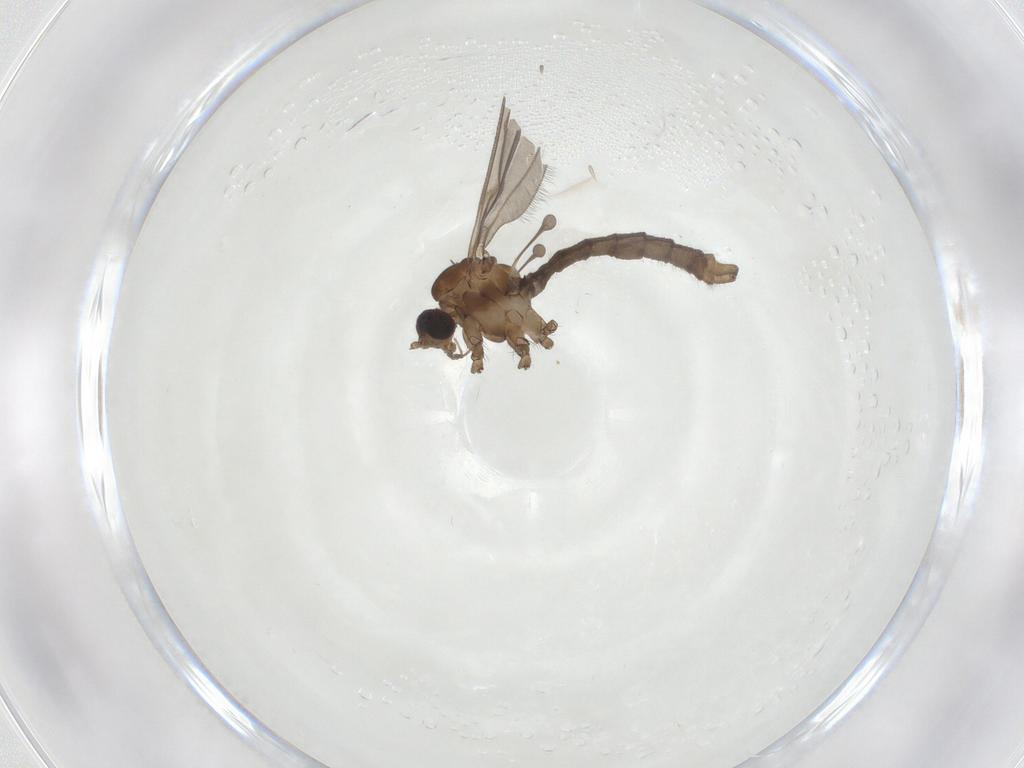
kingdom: Animalia
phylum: Arthropoda
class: Insecta
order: Diptera
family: Limoniidae
